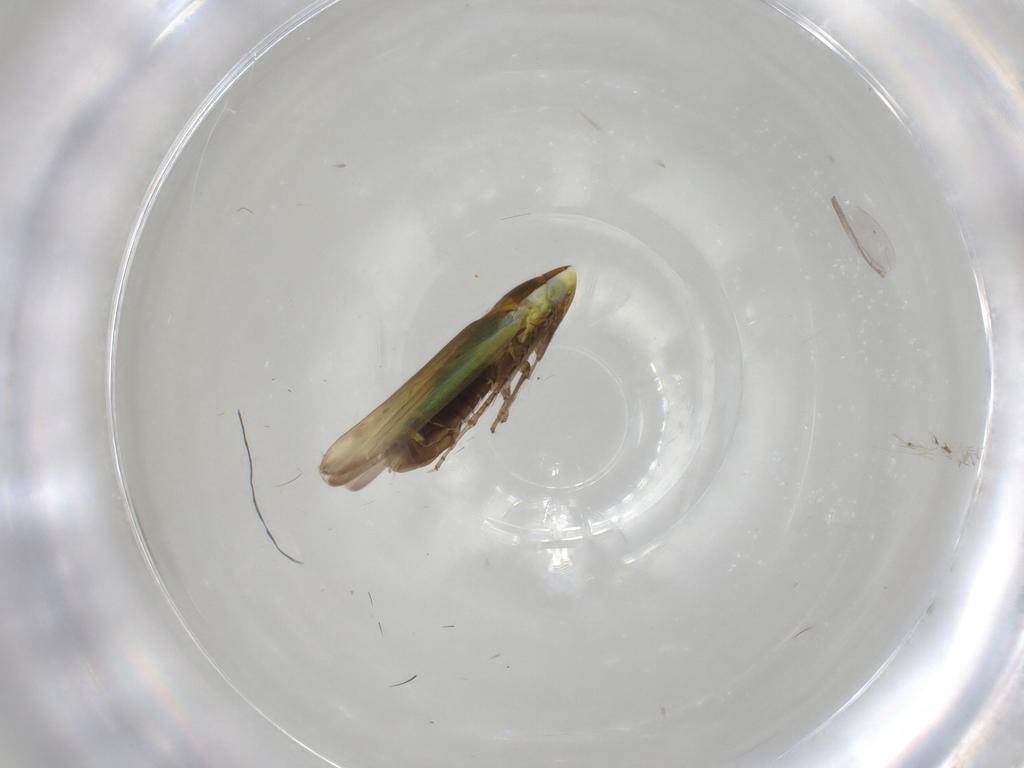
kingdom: Animalia
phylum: Arthropoda
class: Insecta
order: Hemiptera
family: Cicadellidae
